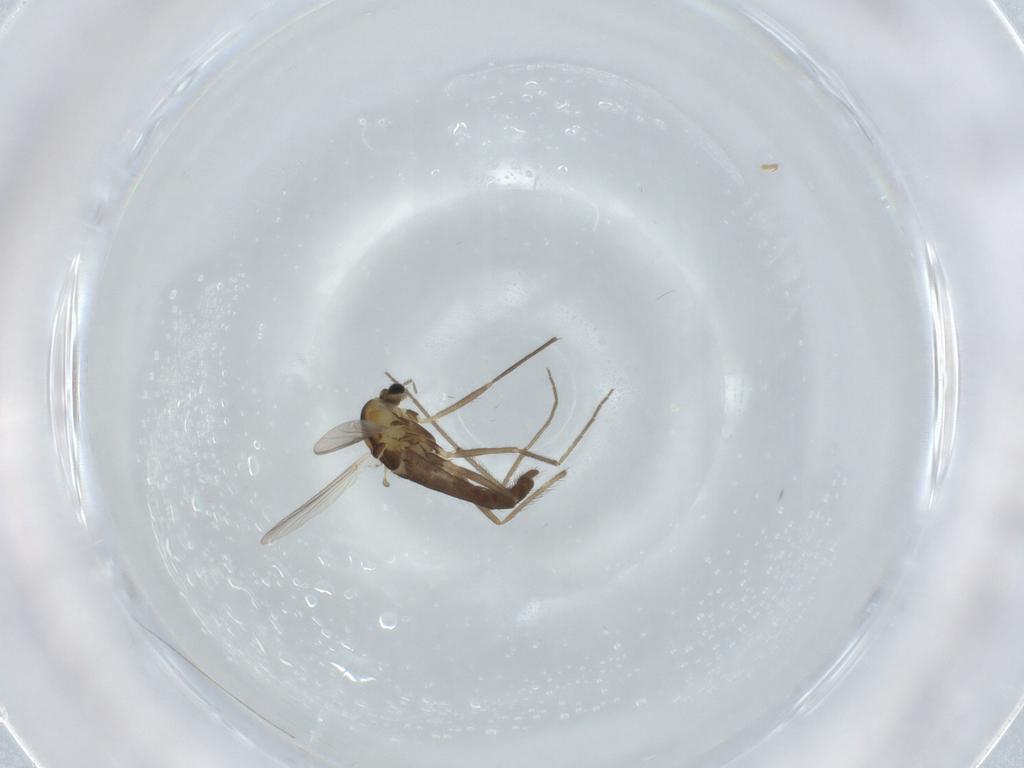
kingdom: Animalia
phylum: Arthropoda
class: Insecta
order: Diptera
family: Chironomidae
